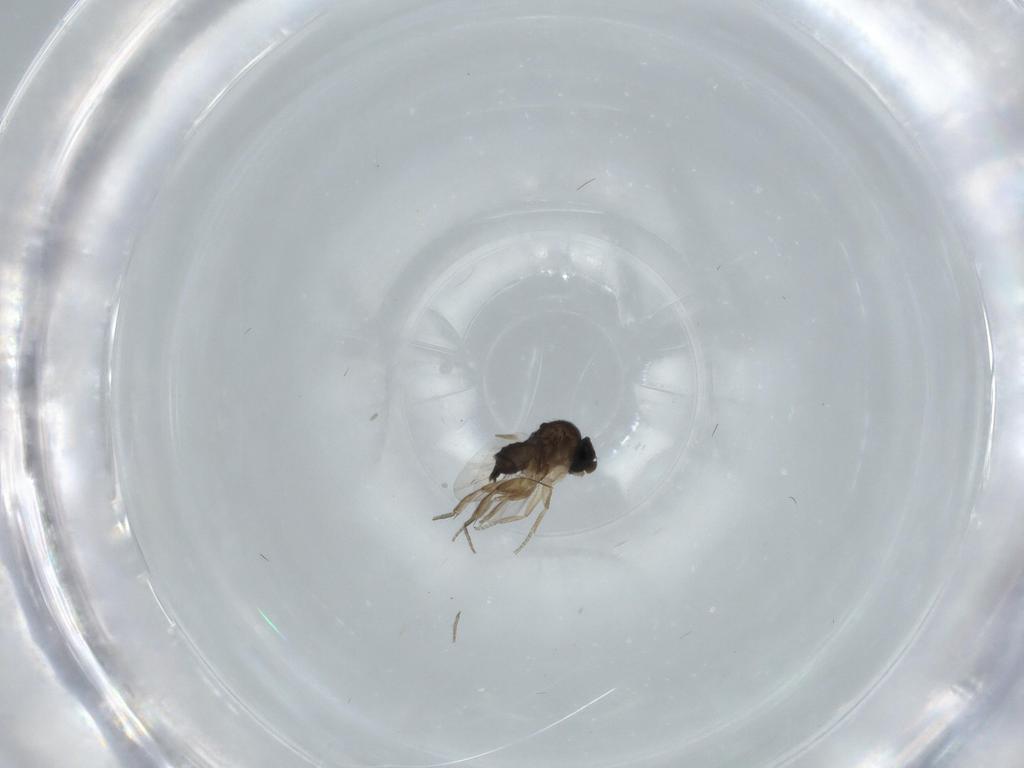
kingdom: Animalia
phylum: Arthropoda
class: Insecta
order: Diptera
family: Phoridae
